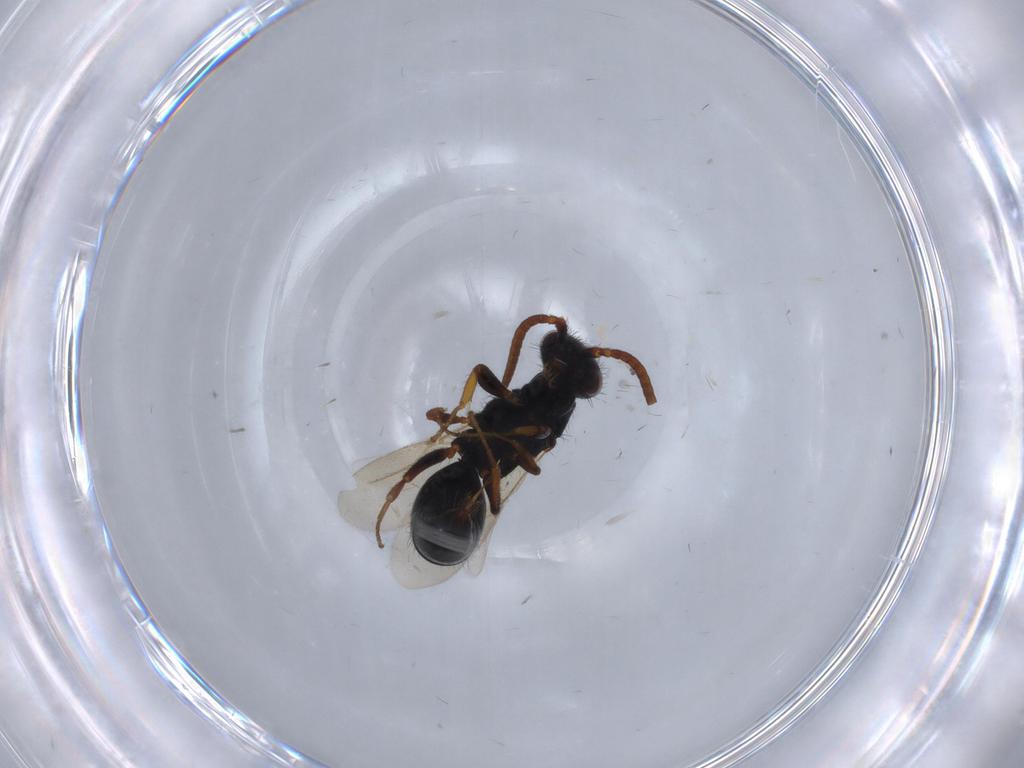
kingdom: Animalia
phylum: Arthropoda
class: Insecta
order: Hymenoptera
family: Bethylidae
